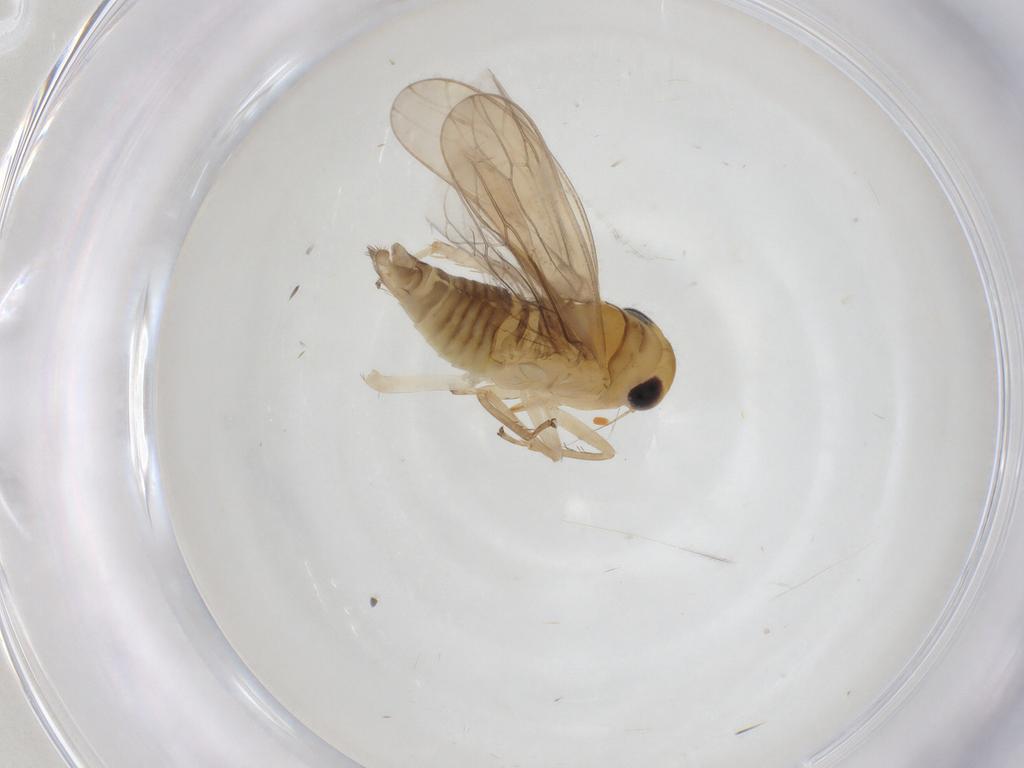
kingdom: Animalia
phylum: Arthropoda
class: Insecta
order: Hemiptera
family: Cicadellidae
